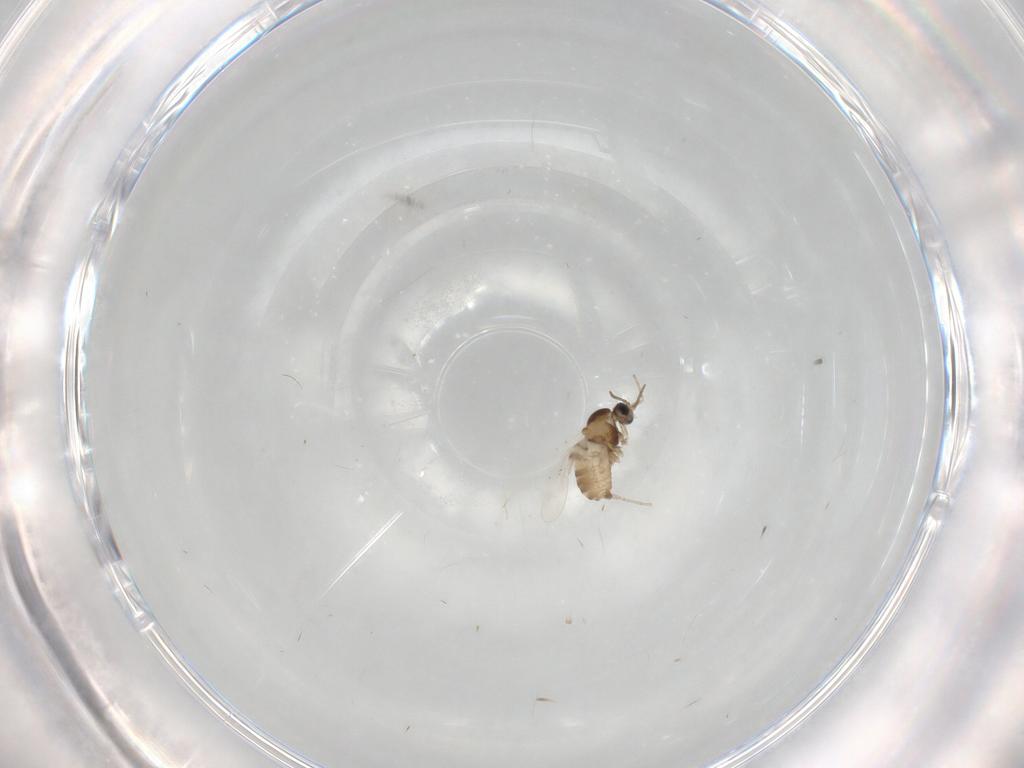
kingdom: Animalia
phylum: Arthropoda
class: Insecta
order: Diptera
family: Cecidomyiidae
